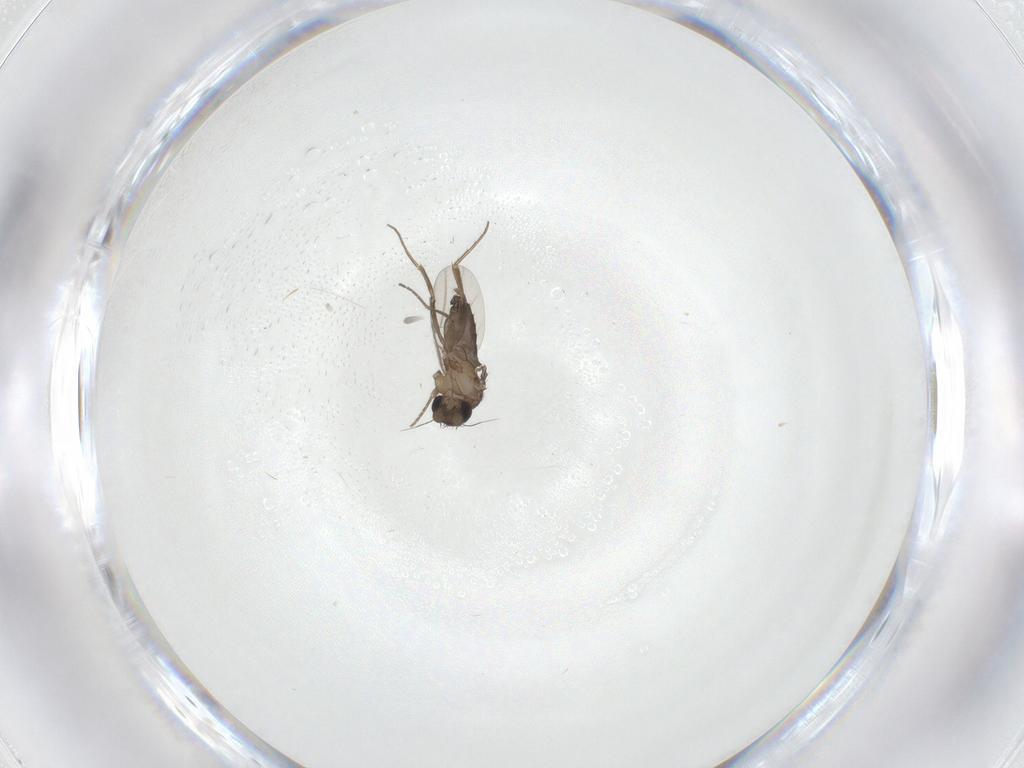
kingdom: Animalia
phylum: Arthropoda
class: Insecta
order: Diptera
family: Phoridae
